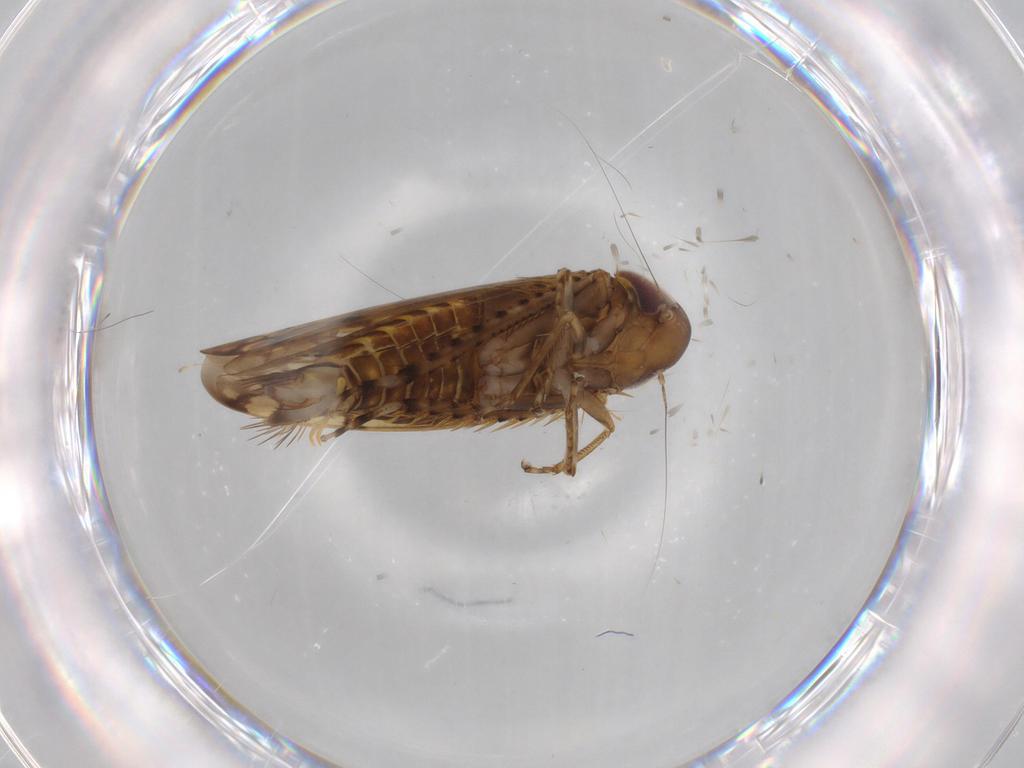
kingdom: Animalia
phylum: Arthropoda
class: Insecta
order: Hemiptera
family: Cicadellidae
